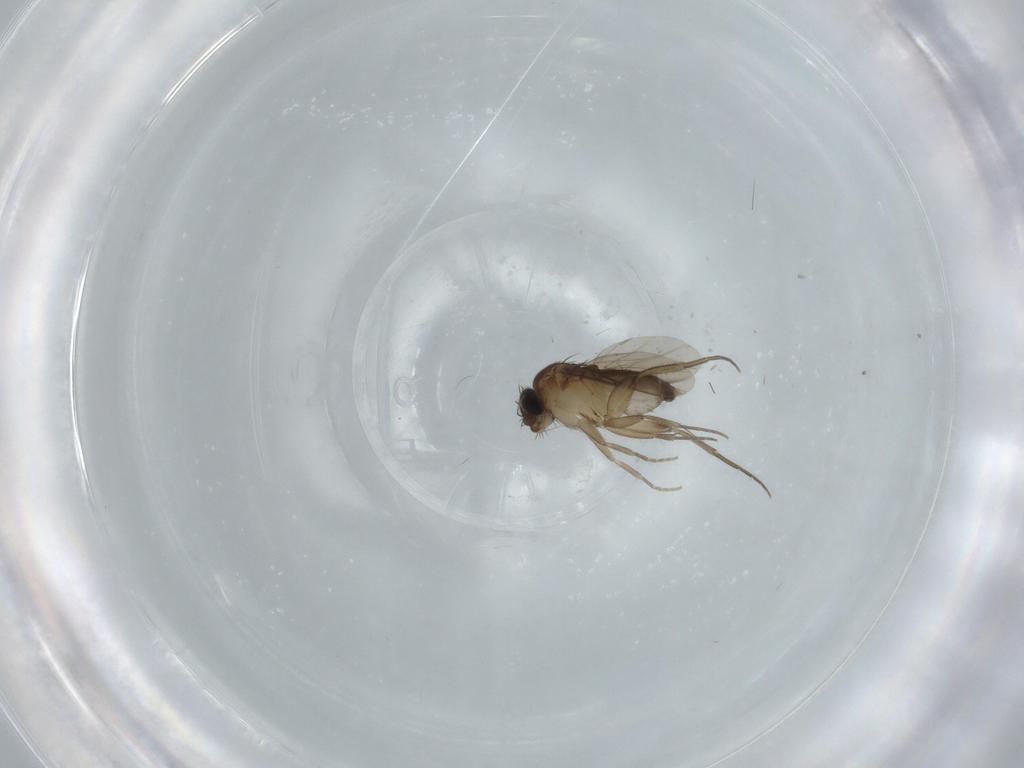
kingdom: Animalia
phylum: Arthropoda
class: Insecta
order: Diptera
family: Phoridae
